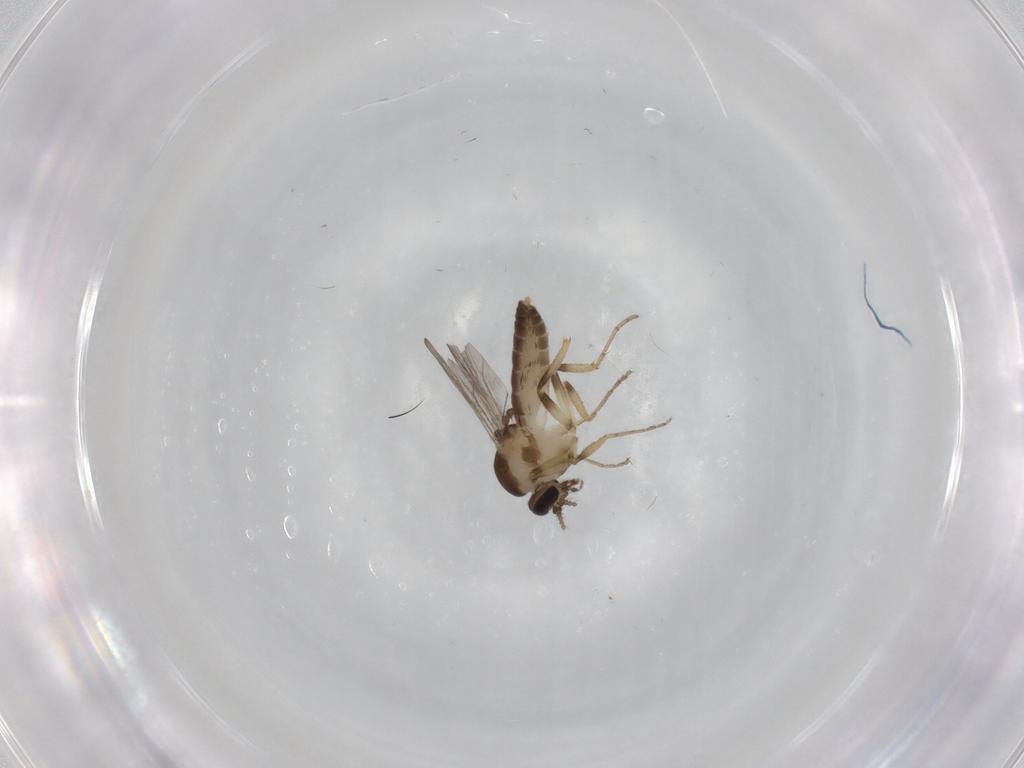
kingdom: Animalia
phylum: Arthropoda
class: Insecta
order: Diptera
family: Ceratopogonidae
